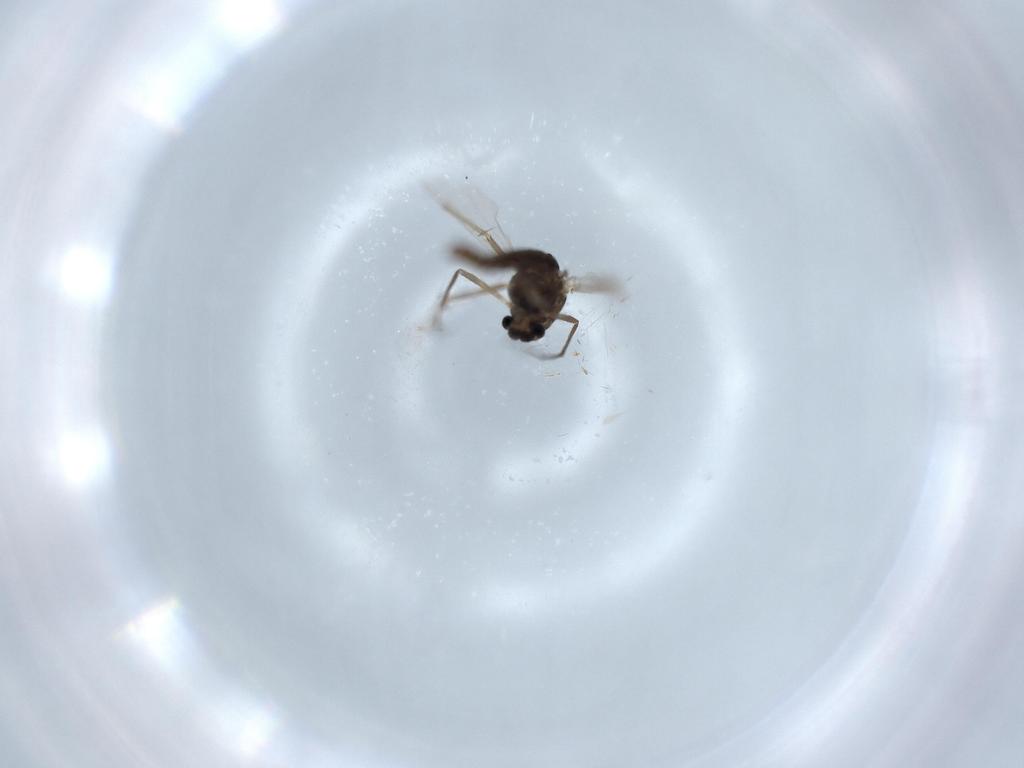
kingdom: Animalia
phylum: Arthropoda
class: Insecta
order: Diptera
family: Chironomidae
